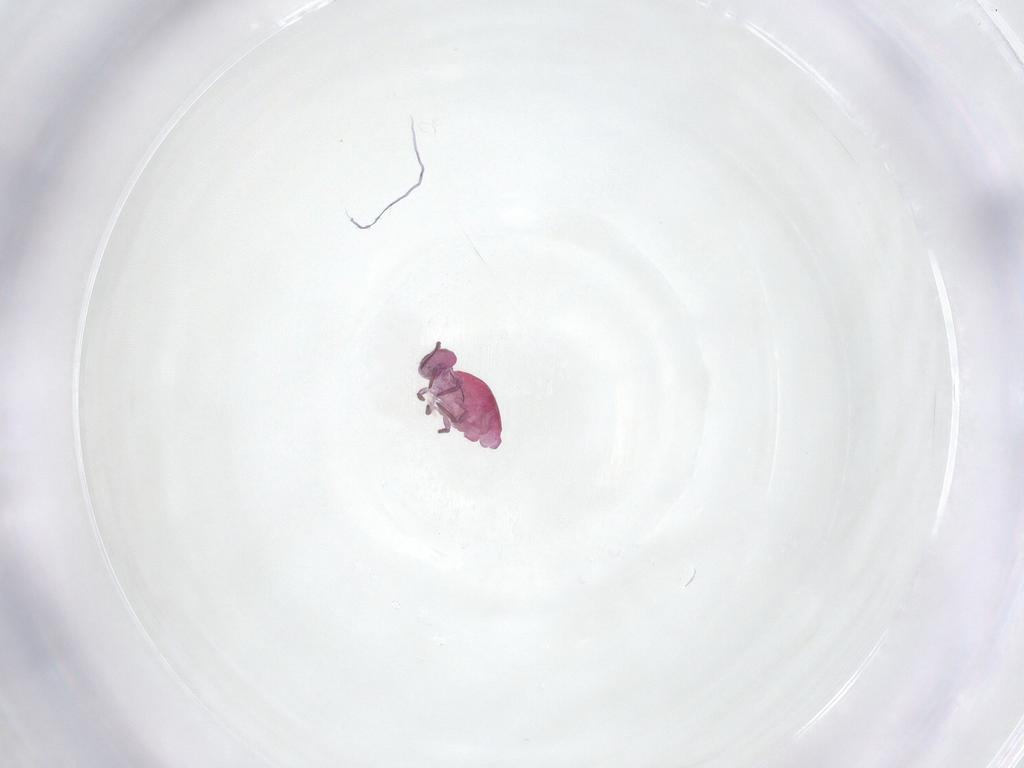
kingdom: Animalia
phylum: Arthropoda
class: Collembola
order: Symphypleona
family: Sminthuridae
